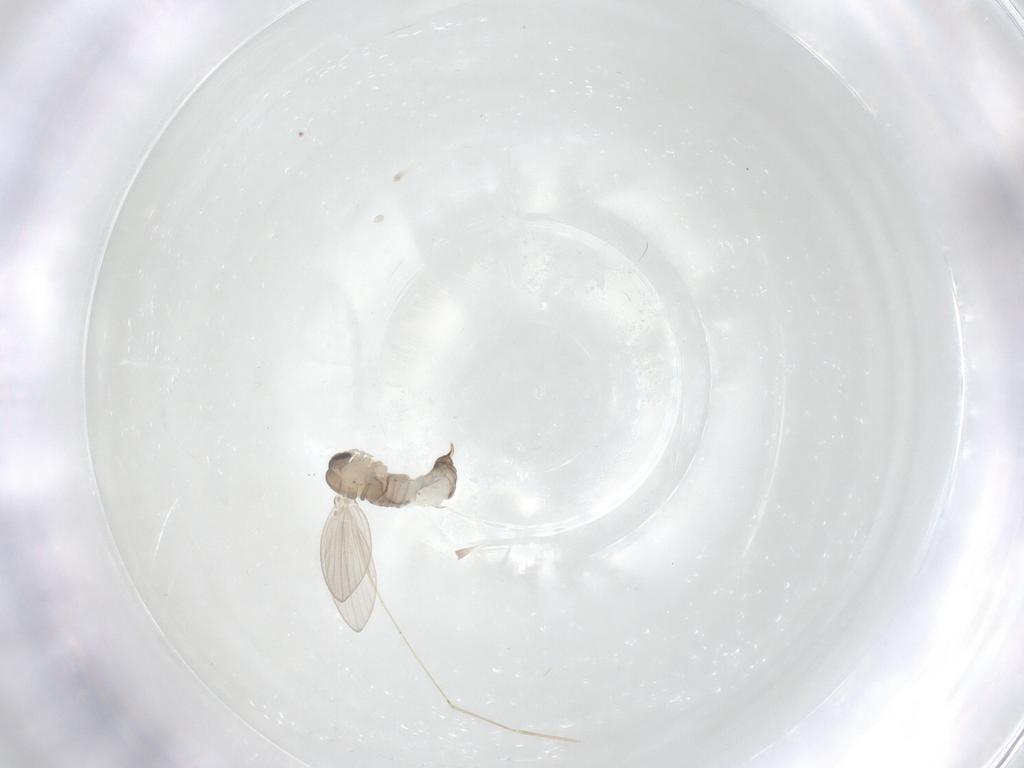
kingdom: Animalia
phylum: Arthropoda
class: Insecta
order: Diptera
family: Psychodidae
